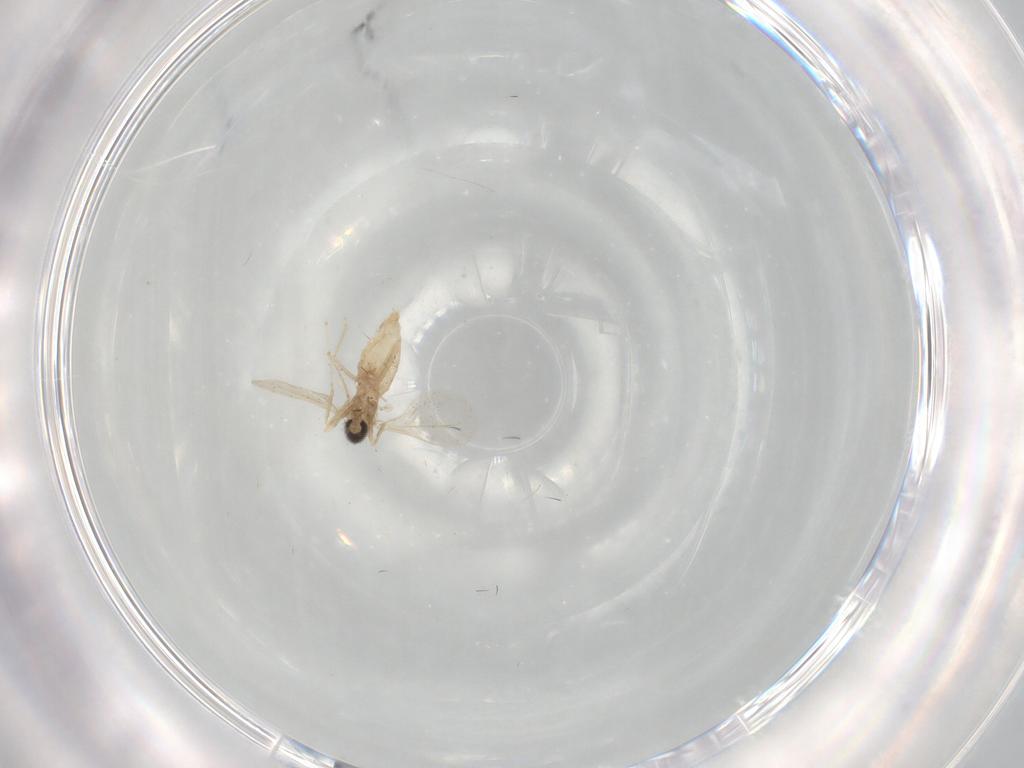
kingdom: Animalia
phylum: Arthropoda
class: Insecta
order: Diptera
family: Cecidomyiidae
